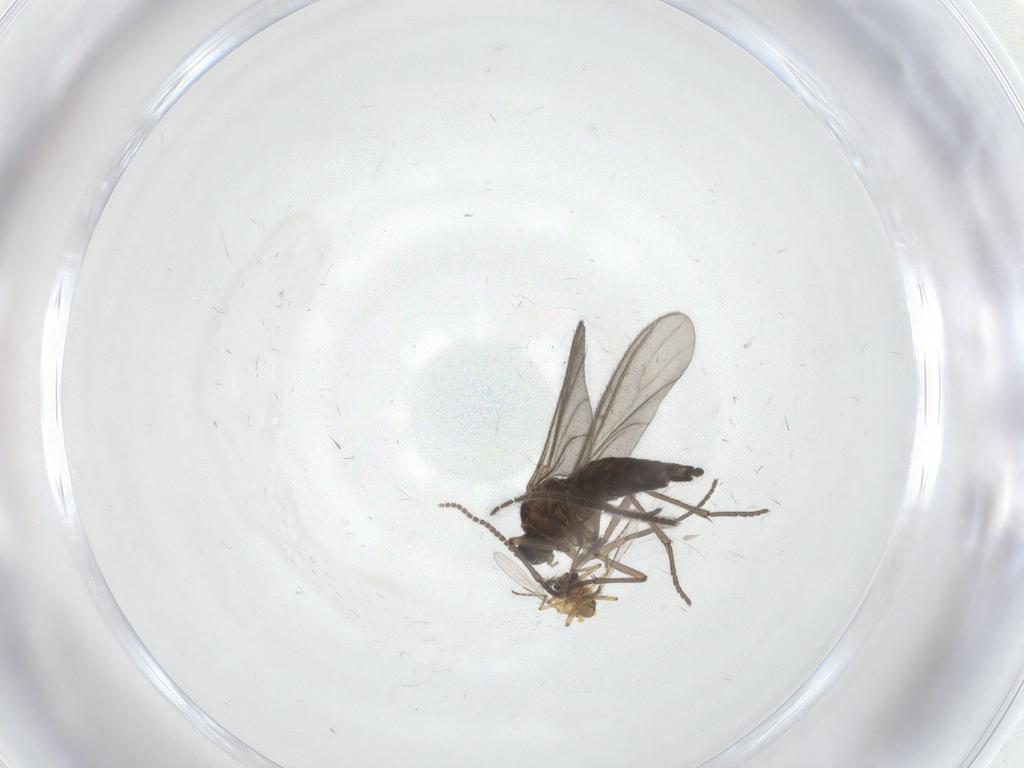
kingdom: Animalia
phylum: Arthropoda
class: Insecta
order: Diptera
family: Sciaridae
